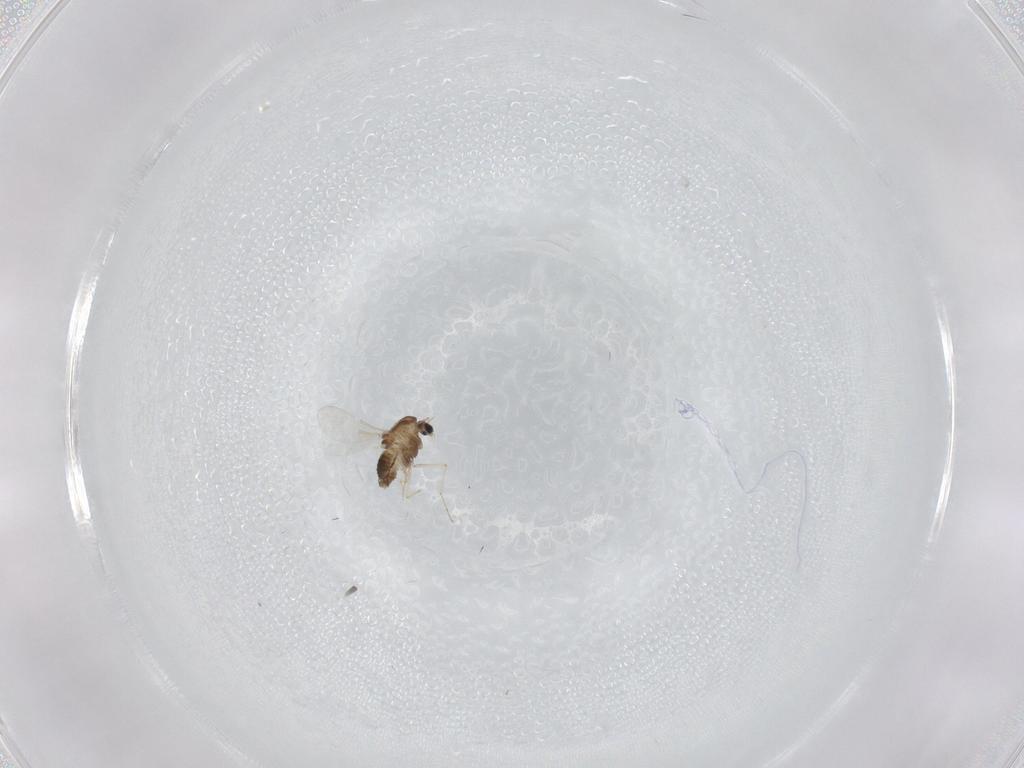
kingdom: Animalia
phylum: Arthropoda
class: Insecta
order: Diptera
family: Chironomidae
